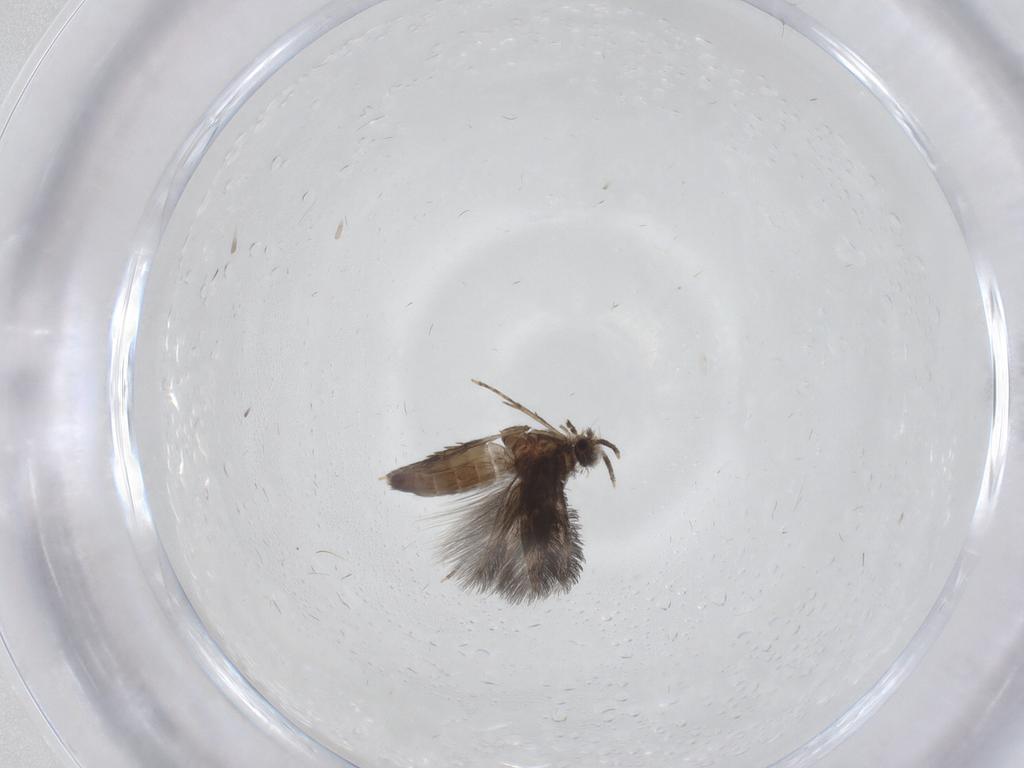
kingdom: Animalia
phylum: Arthropoda
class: Insecta
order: Trichoptera
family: Hydroptilidae
